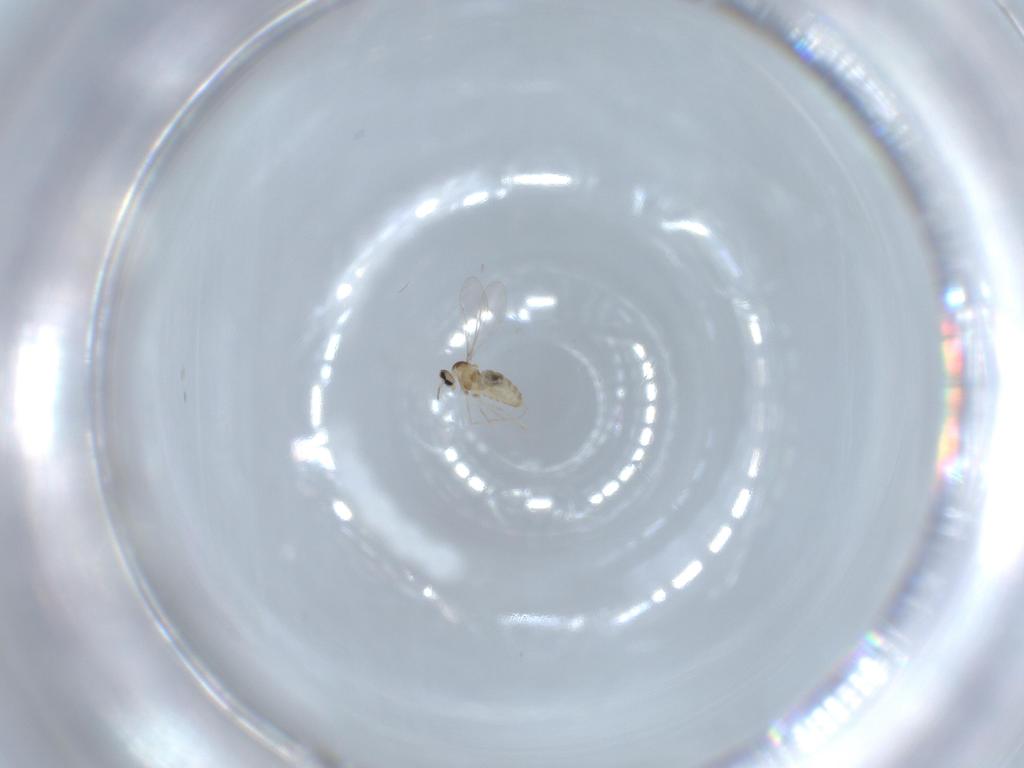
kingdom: Animalia
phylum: Arthropoda
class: Insecta
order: Diptera
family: Cecidomyiidae
